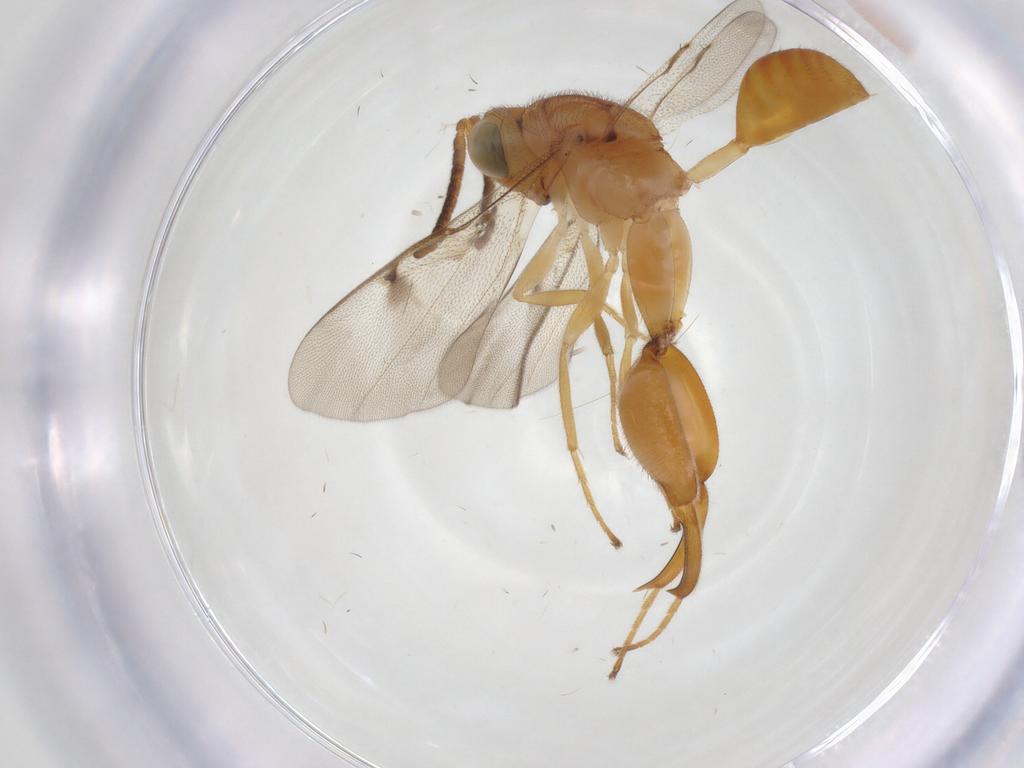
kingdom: Animalia
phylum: Arthropoda
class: Insecta
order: Hymenoptera
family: Chalcididae
